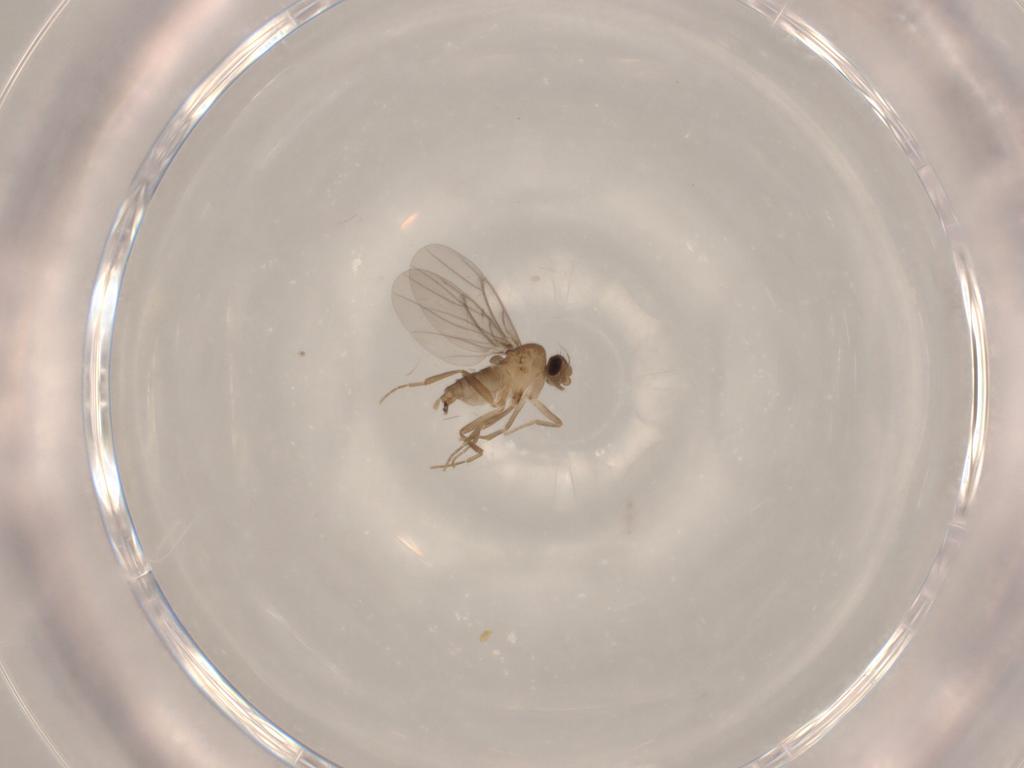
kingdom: Animalia
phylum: Arthropoda
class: Insecta
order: Diptera
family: Cecidomyiidae
